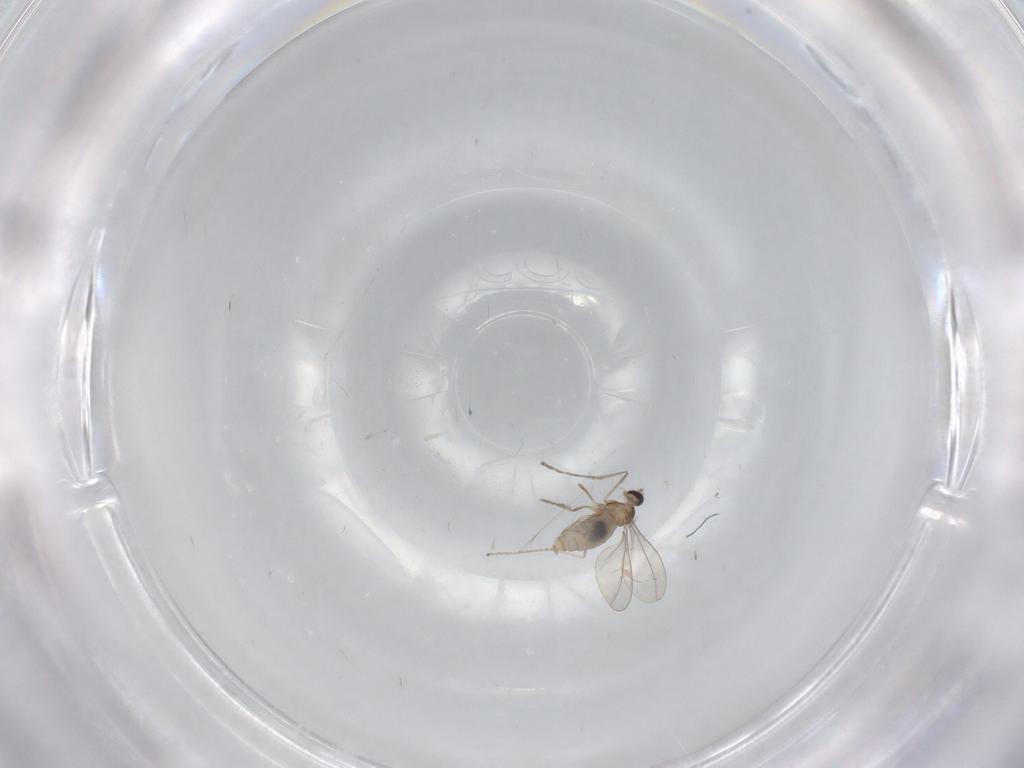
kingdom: Animalia
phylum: Arthropoda
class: Insecta
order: Diptera
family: Cecidomyiidae
